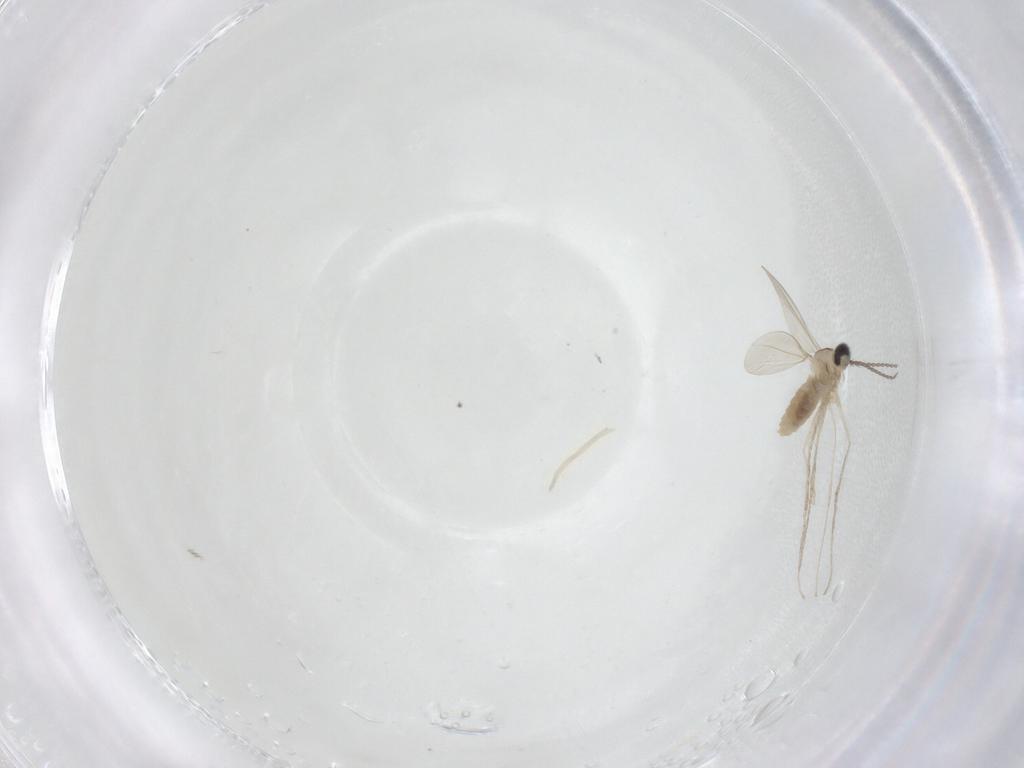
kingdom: Animalia
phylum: Arthropoda
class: Insecta
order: Diptera
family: Cecidomyiidae
